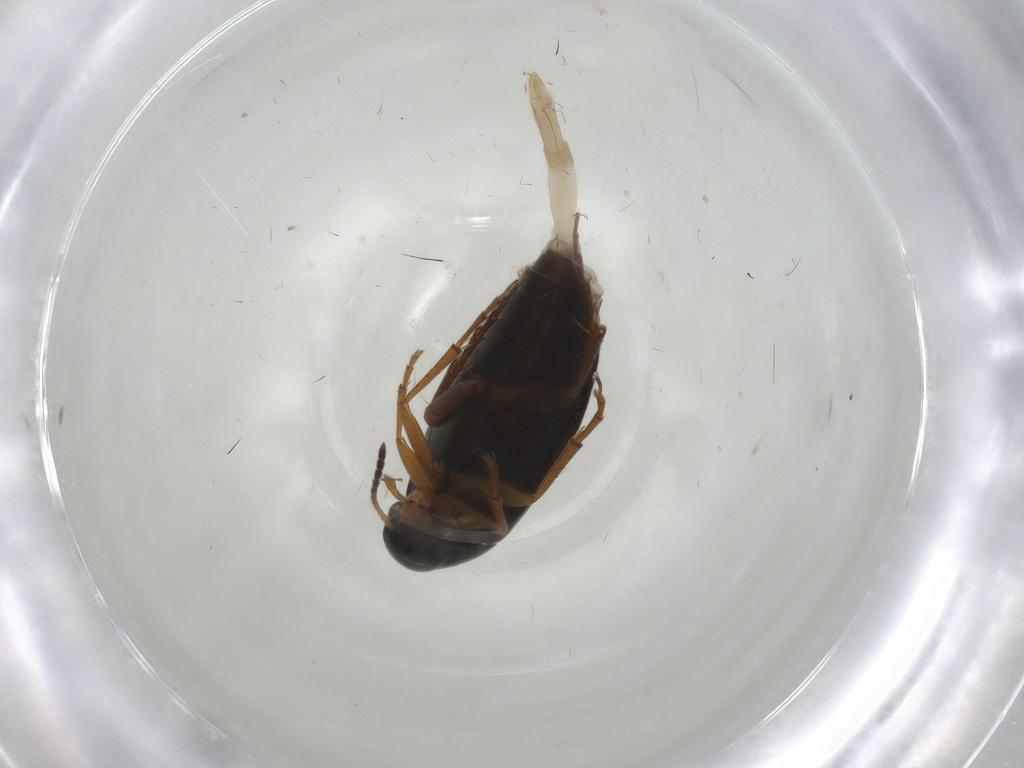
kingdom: Animalia
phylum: Arthropoda
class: Insecta
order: Coleoptera
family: Scraptiidae
